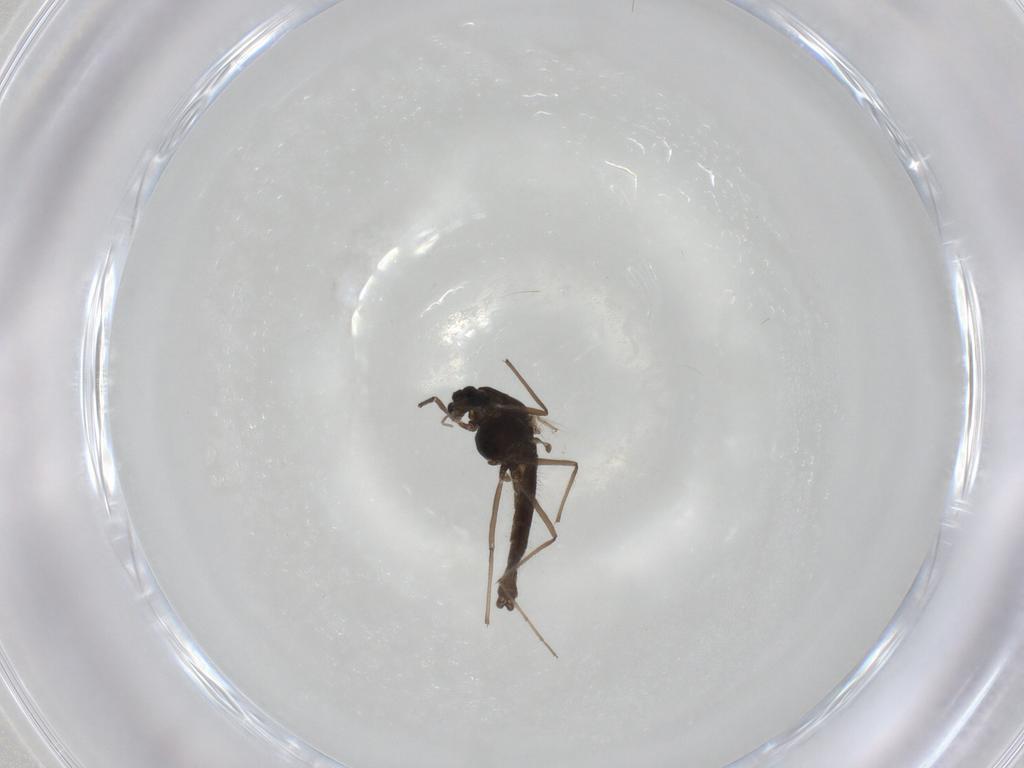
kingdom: Animalia
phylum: Arthropoda
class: Insecta
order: Diptera
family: Chironomidae
